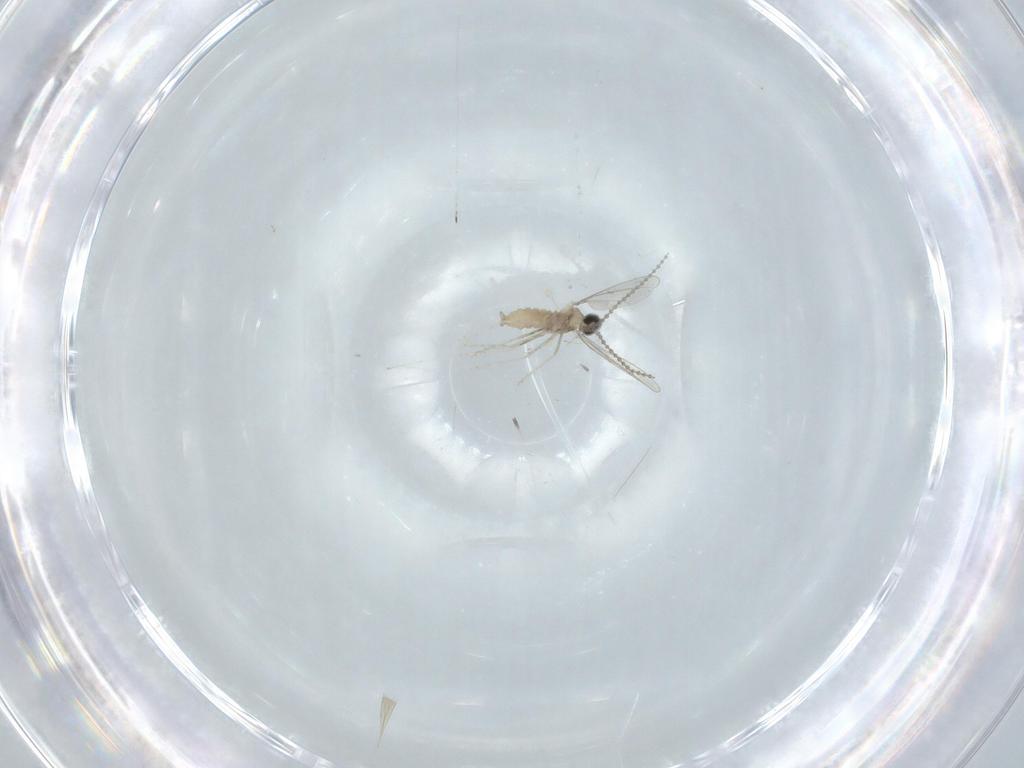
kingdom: Animalia
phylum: Arthropoda
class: Insecta
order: Diptera
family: Cecidomyiidae
